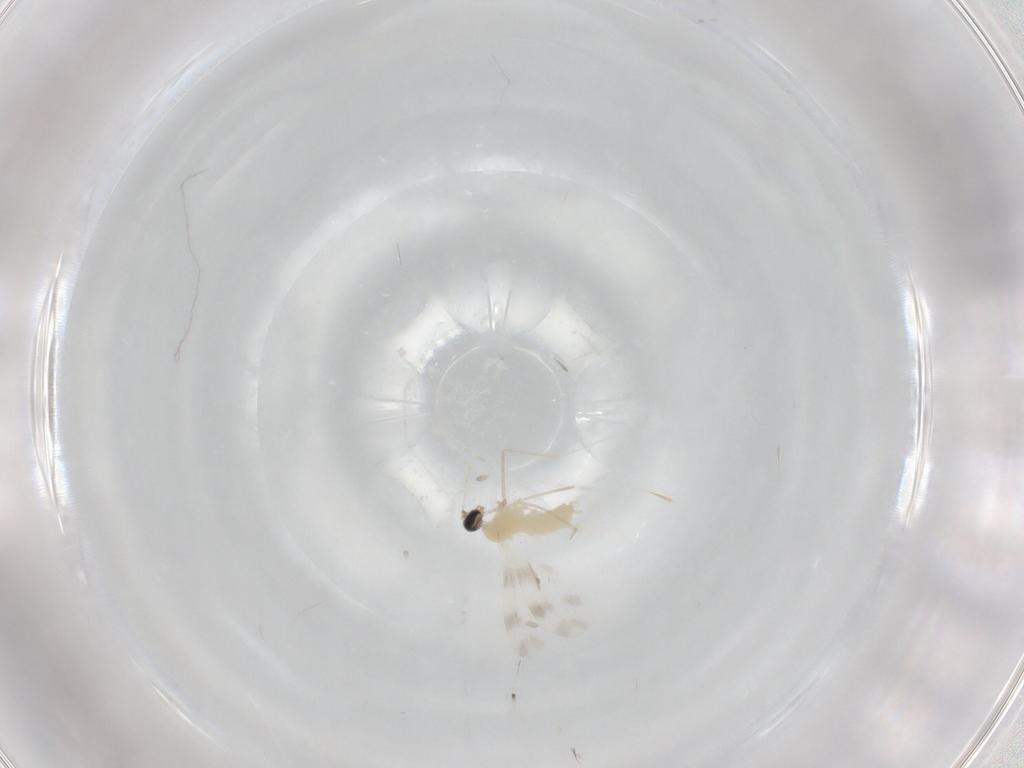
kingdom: Animalia
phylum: Arthropoda
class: Insecta
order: Diptera
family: Cecidomyiidae
